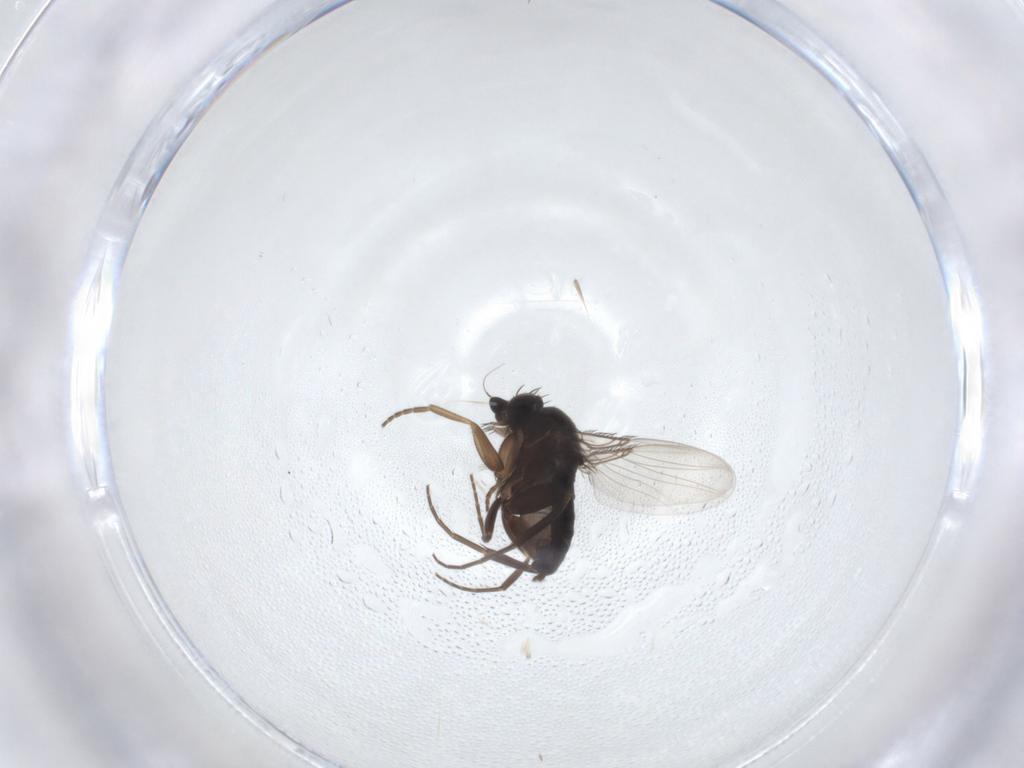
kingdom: Animalia
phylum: Arthropoda
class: Insecta
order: Diptera
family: Phoridae
